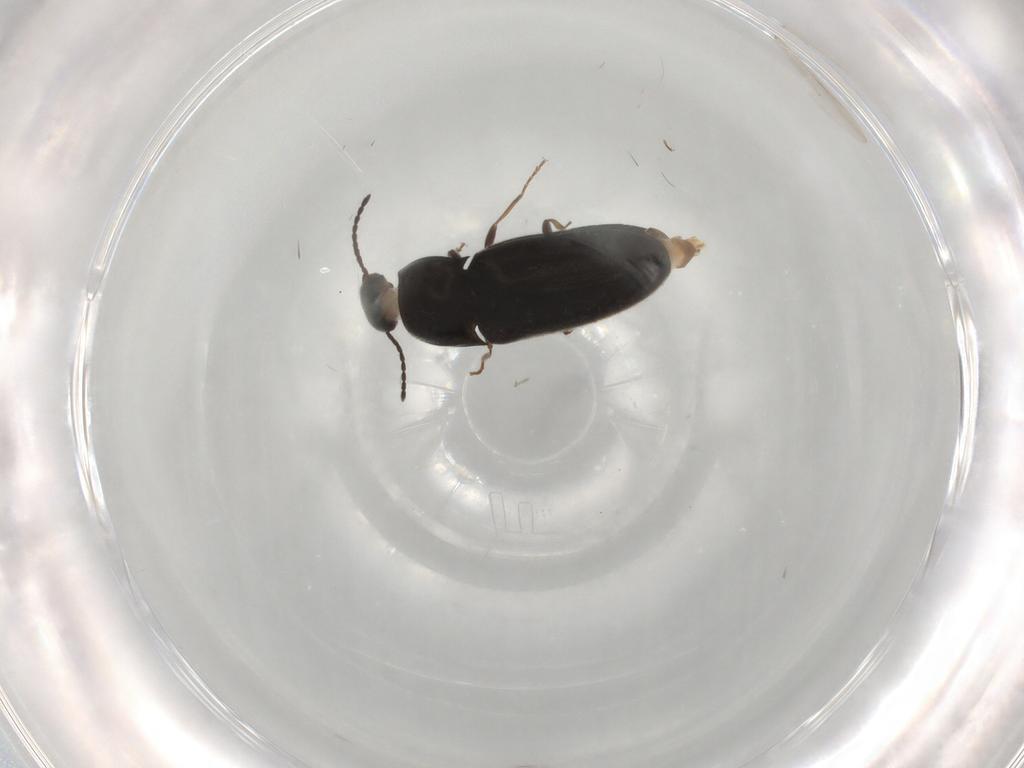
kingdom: Animalia
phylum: Arthropoda
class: Insecta
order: Coleoptera
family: Elateridae
